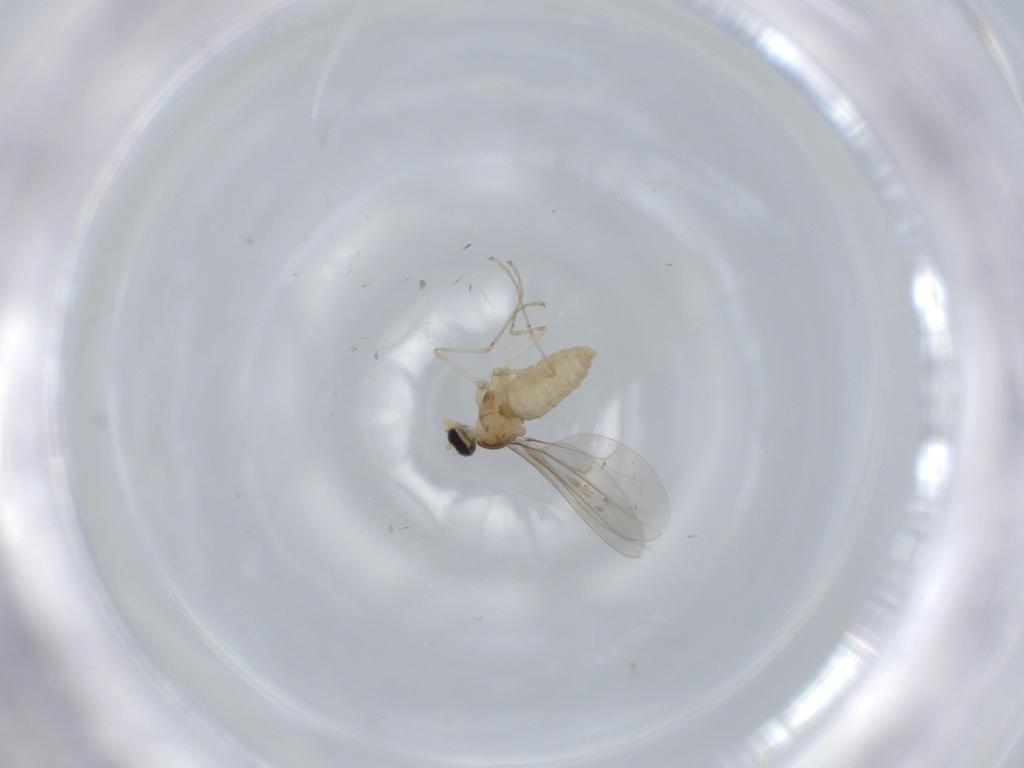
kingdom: Animalia
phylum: Arthropoda
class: Insecta
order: Diptera
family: Cecidomyiidae
